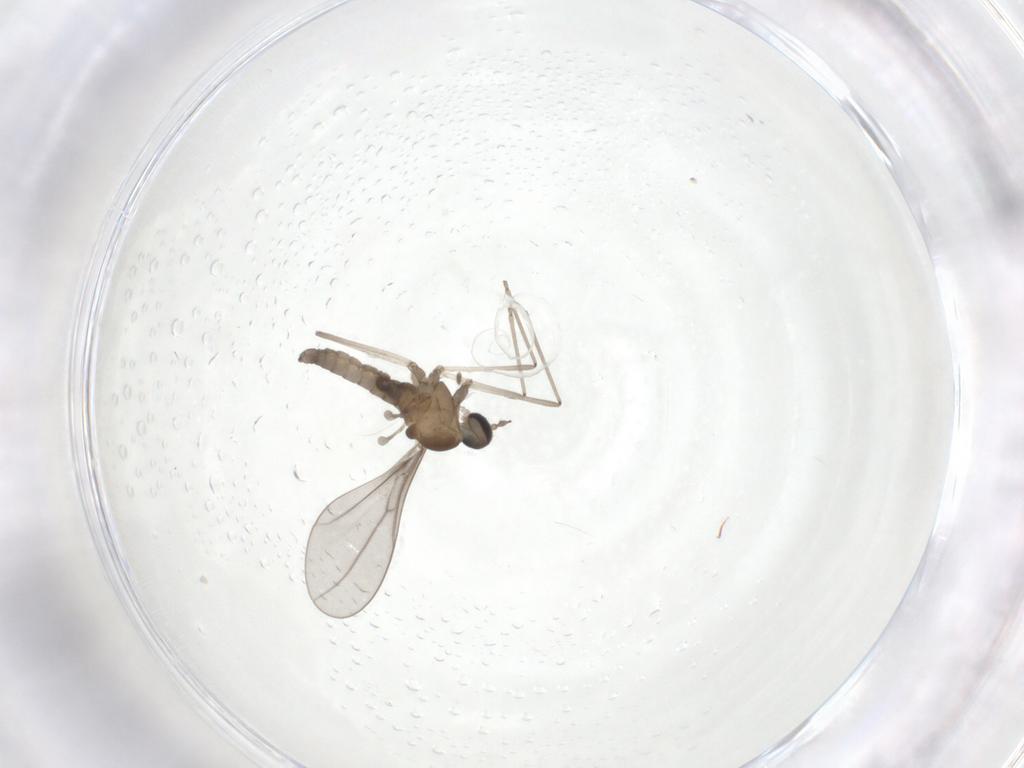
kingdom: Animalia
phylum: Arthropoda
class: Insecta
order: Diptera
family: Cecidomyiidae
